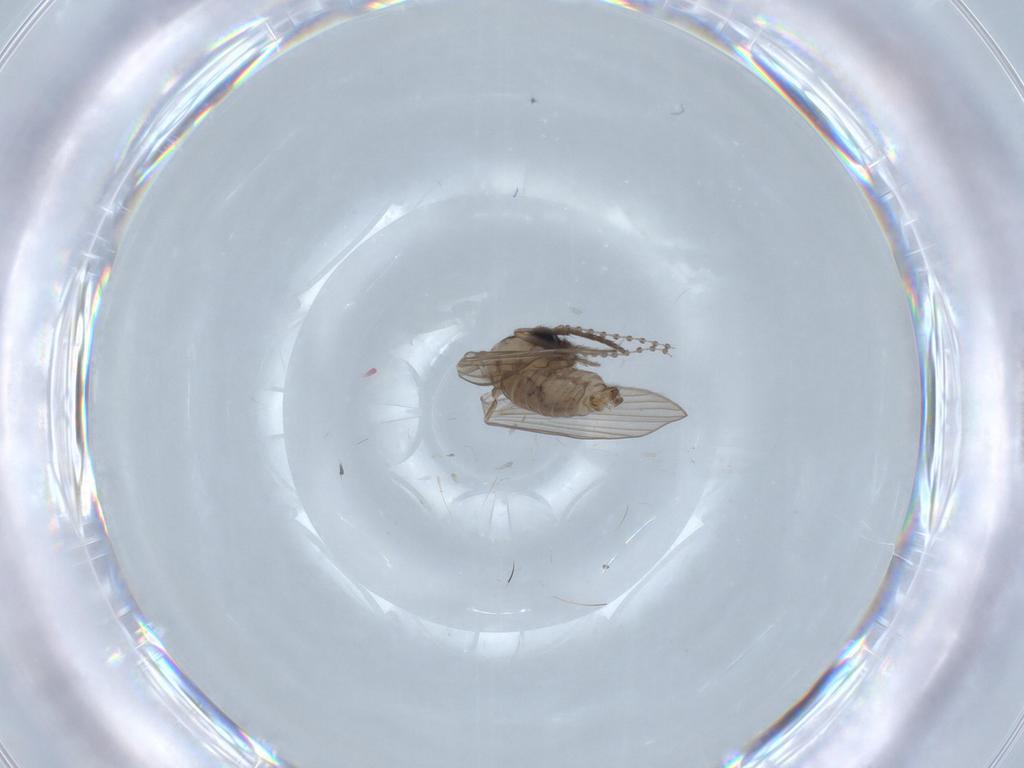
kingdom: Animalia
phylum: Arthropoda
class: Insecta
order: Diptera
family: Psychodidae
